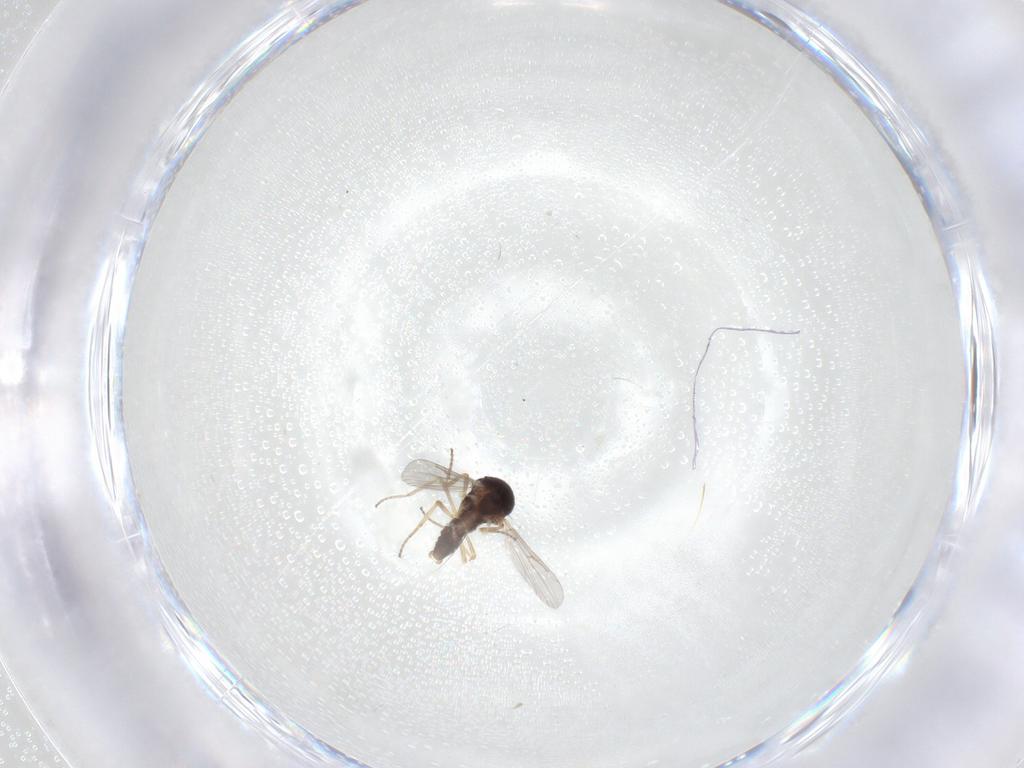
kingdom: Animalia
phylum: Arthropoda
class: Insecta
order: Diptera
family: Ceratopogonidae
